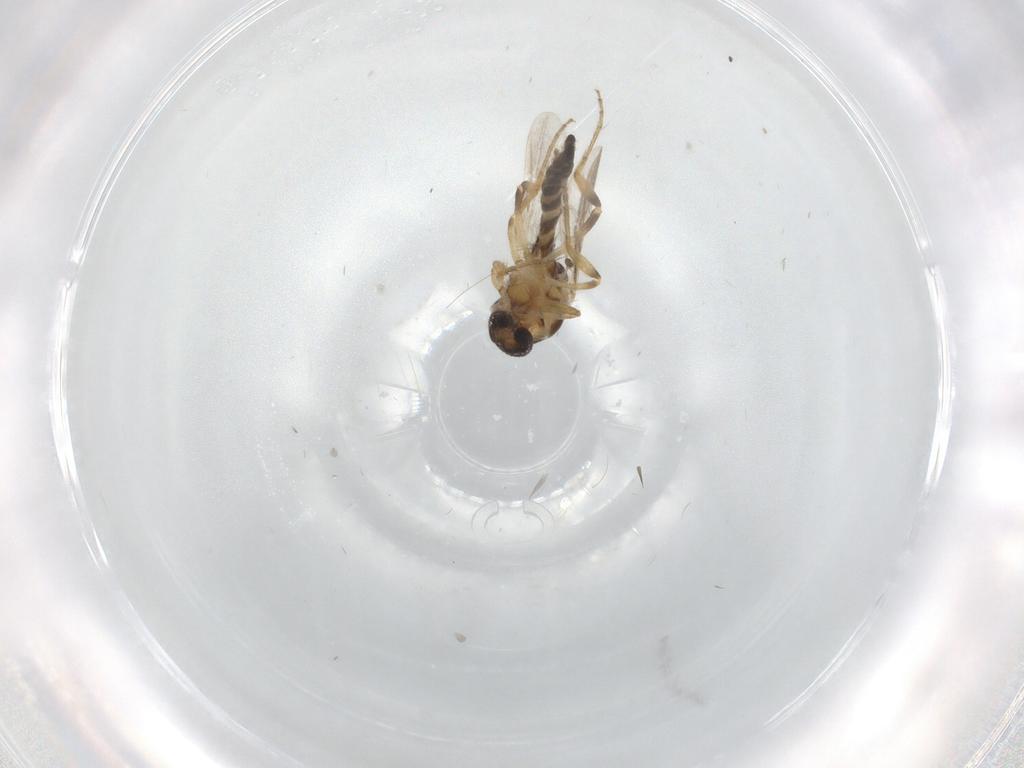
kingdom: Animalia
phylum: Arthropoda
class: Insecta
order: Diptera
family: Ceratopogonidae
